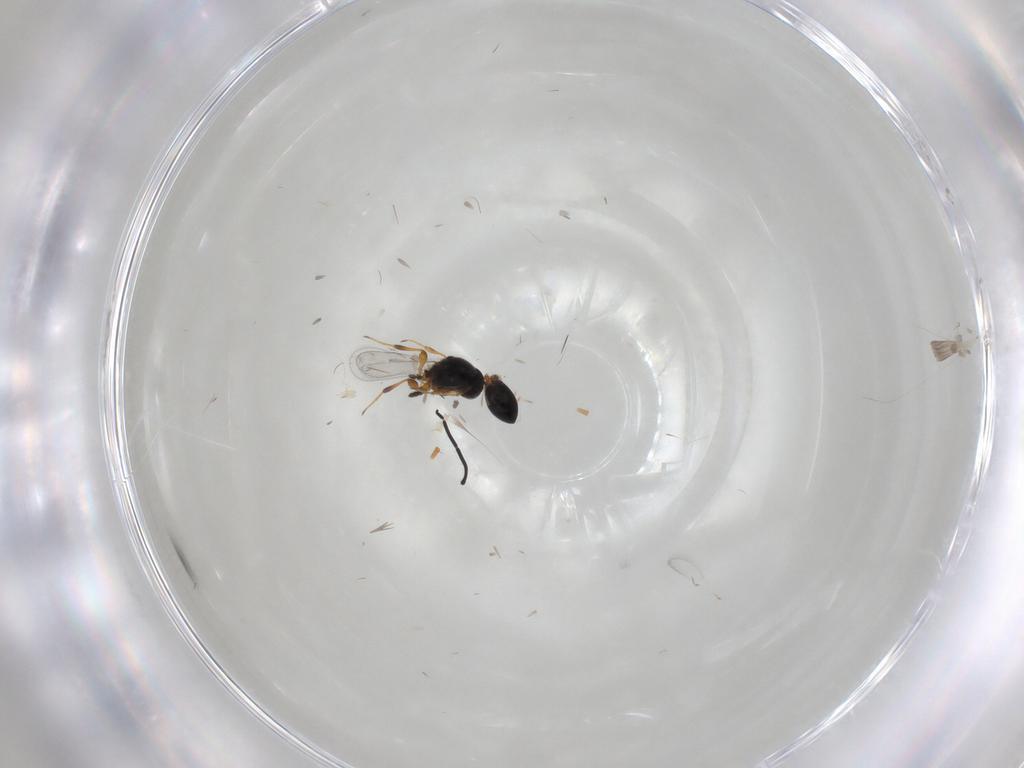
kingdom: Animalia
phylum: Arthropoda
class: Insecta
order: Hymenoptera
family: Platygastridae
